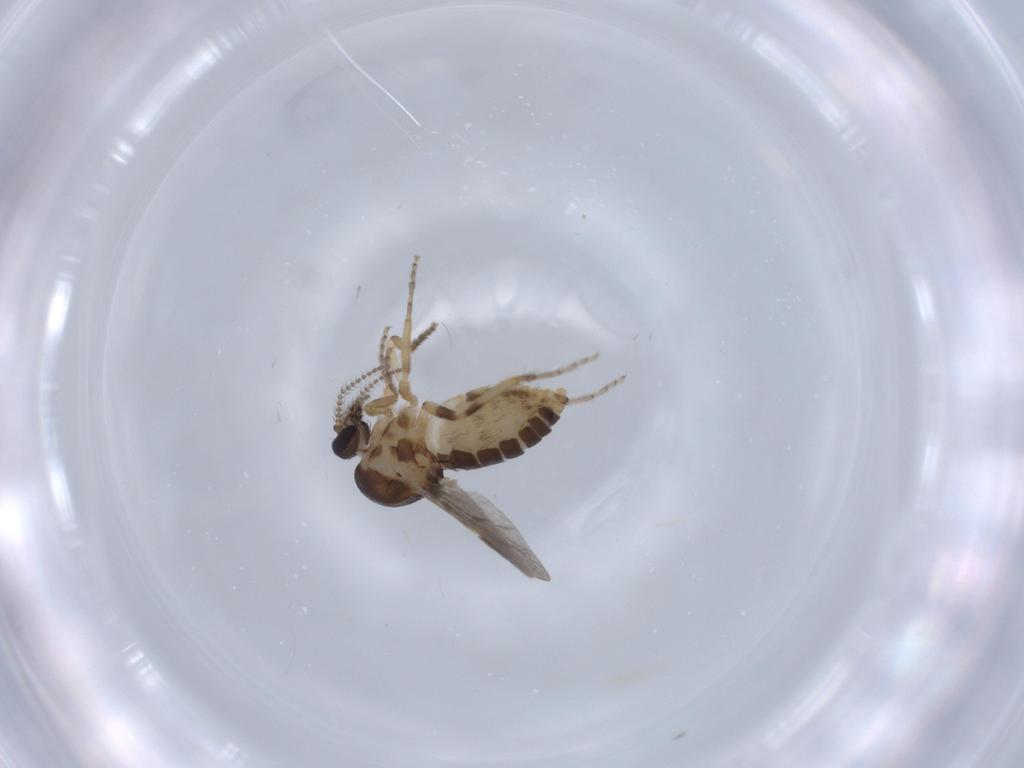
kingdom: Animalia
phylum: Arthropoda
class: Insecta
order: Diptera
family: Ceratopogonidae
